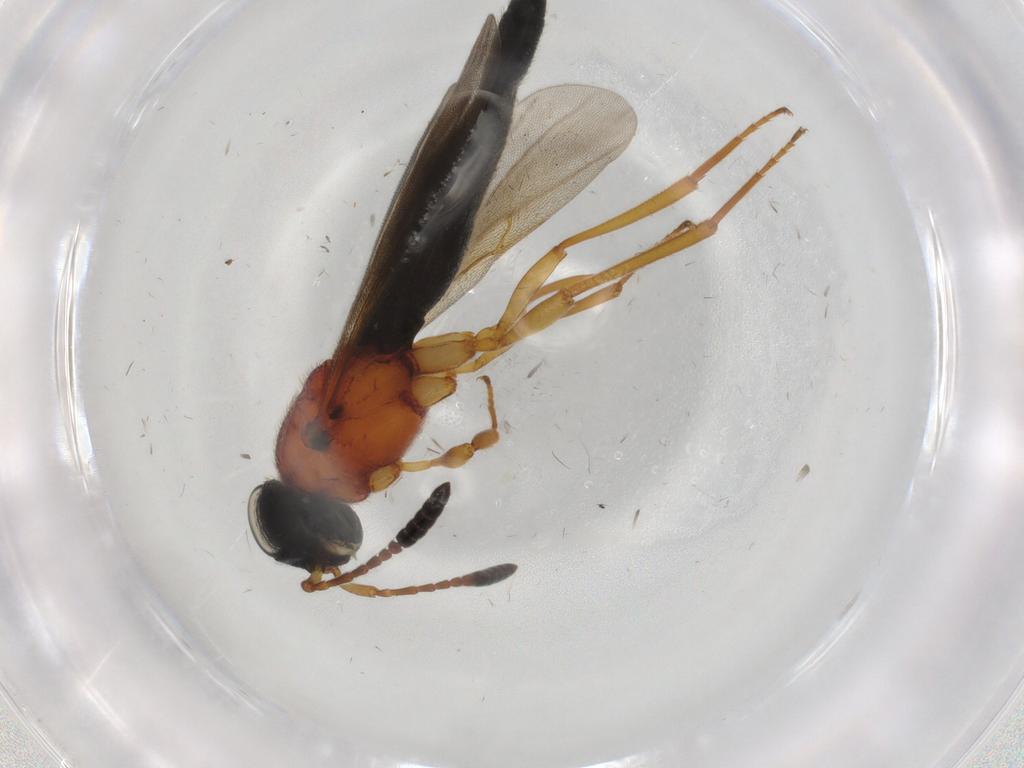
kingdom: Animalia
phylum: Arthropoda
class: Insecta
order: Hymenoptera
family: Scelionidae
